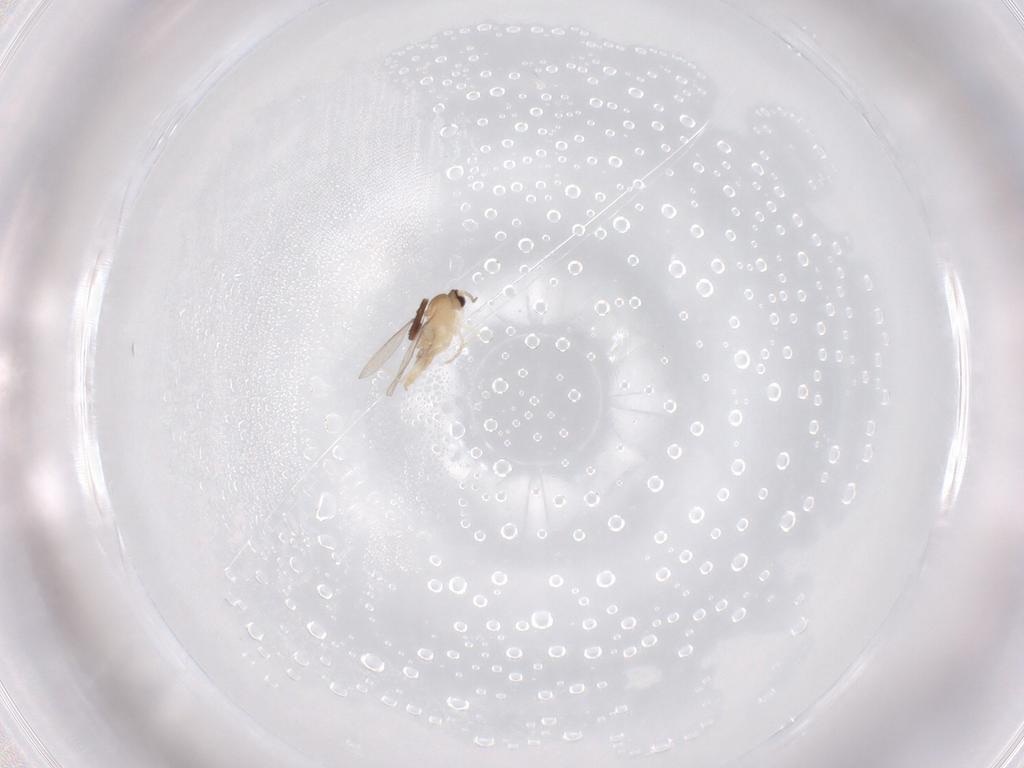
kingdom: Animalia
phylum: Arthropoda
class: Insecta
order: Diptera
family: Cecidomyiidae
